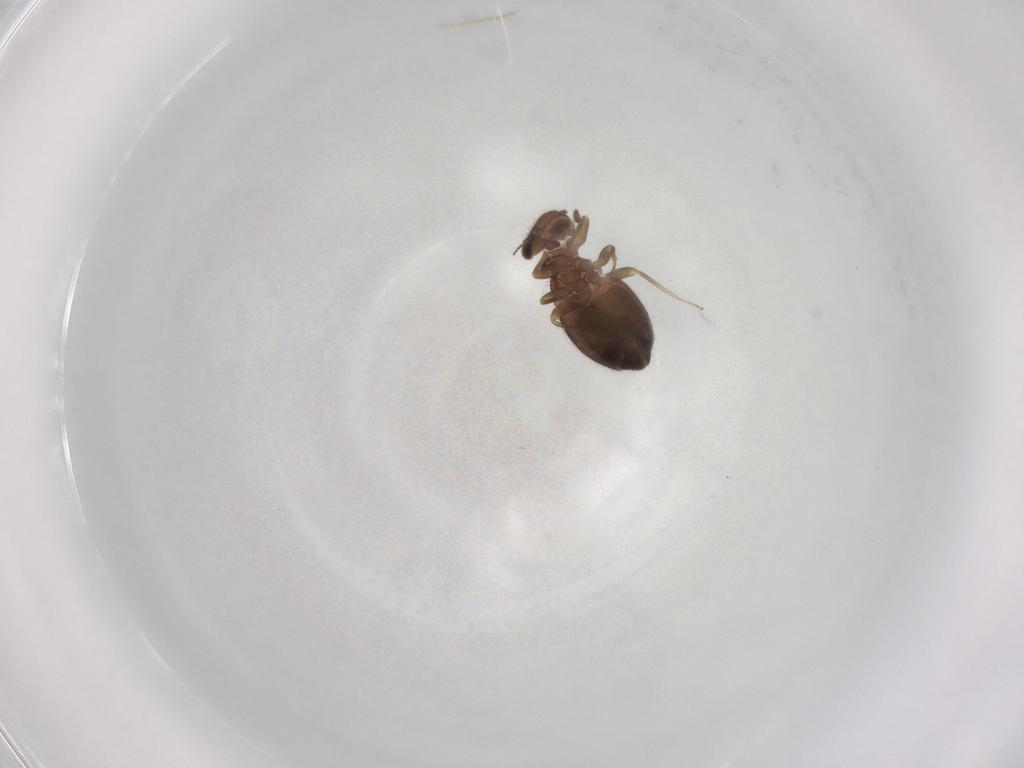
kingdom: Animalia
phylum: Arthropoda
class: Insecta
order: Psocodea
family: Trogiidae
